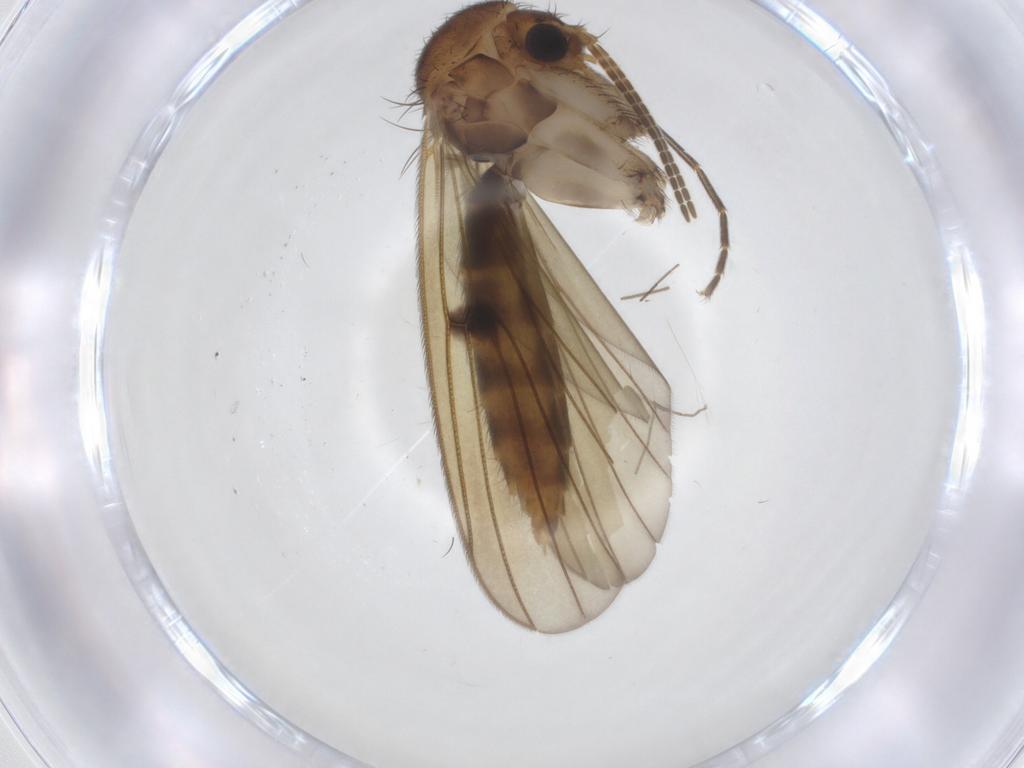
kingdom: Animalia
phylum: Arthropoda
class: Insecta
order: Diptera
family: Mycetophilidae
